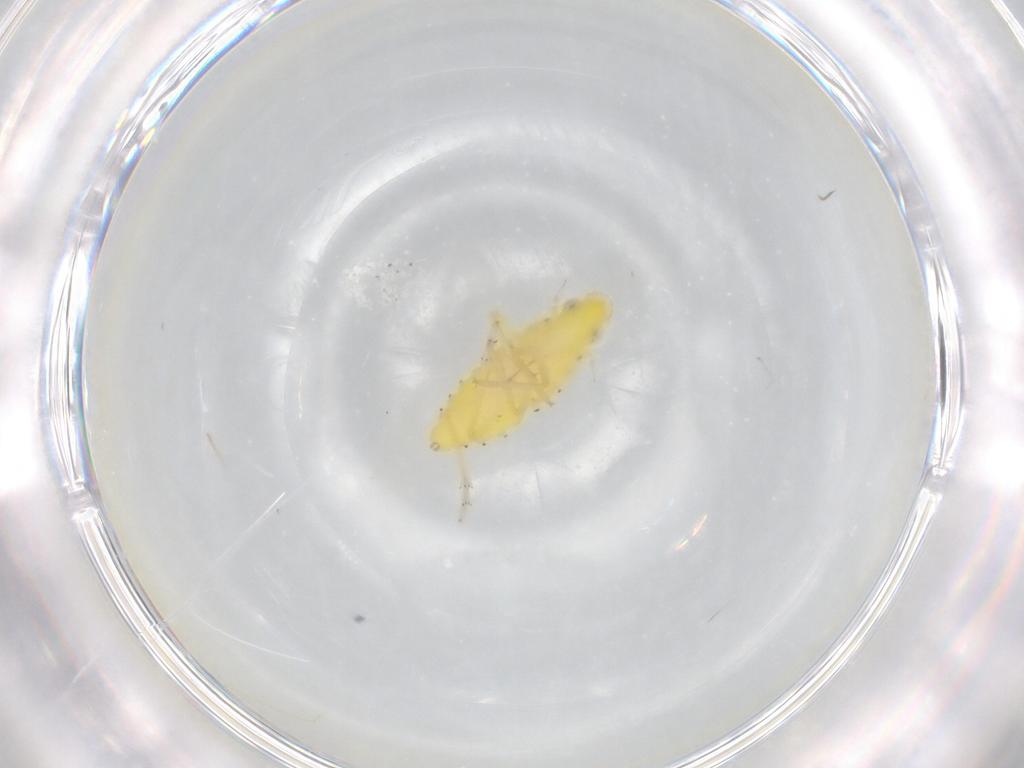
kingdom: Animalia
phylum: Arthropoda
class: Insecta
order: Hemiptera
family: Tropiduchidae
